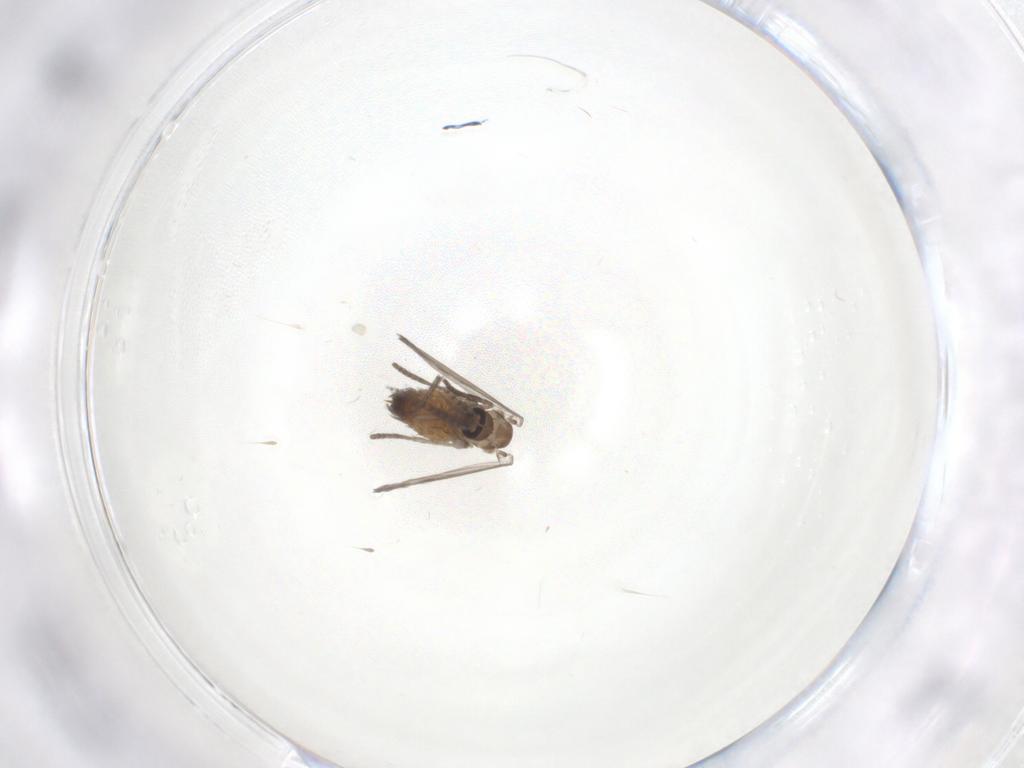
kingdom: Animalia
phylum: Arthropoda
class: Insecta
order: Diptera
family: Psychodidae
